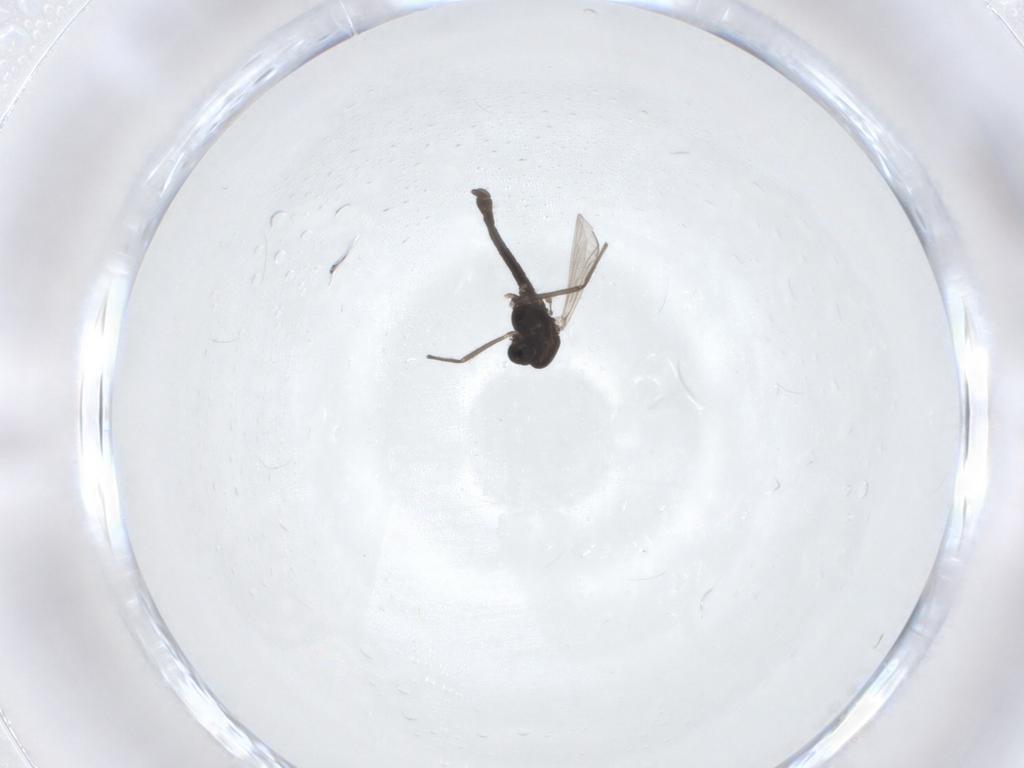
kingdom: Animalia
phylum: Arthropoda
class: Insecta
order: Diptera
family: Chironomidae
